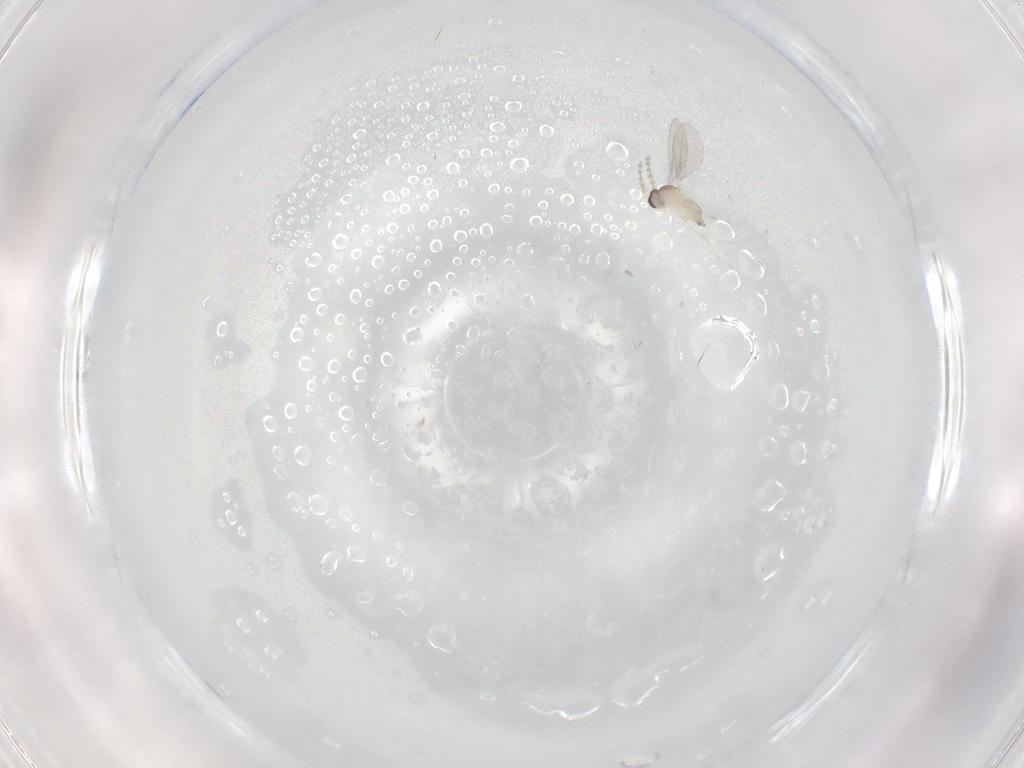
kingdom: Animalia
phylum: Arthropoda
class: Insecta
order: Diptera
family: Cecidomyiidae
